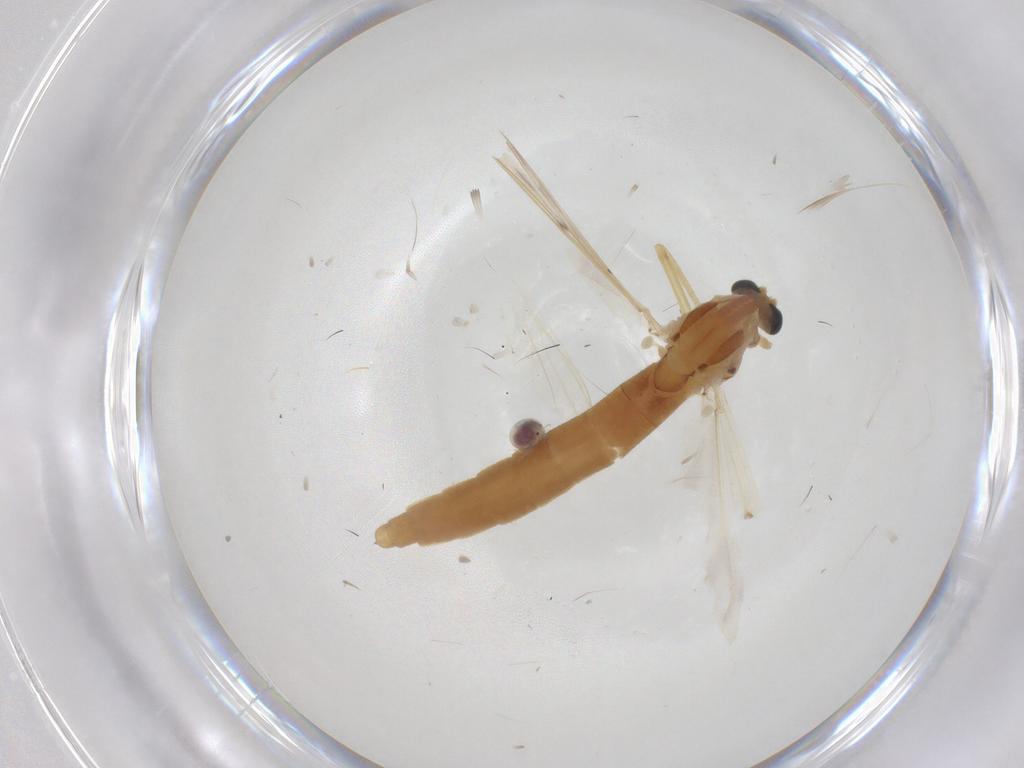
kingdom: Animalia
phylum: Arthropoda
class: Insecta
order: Diptera
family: Chironomidae
